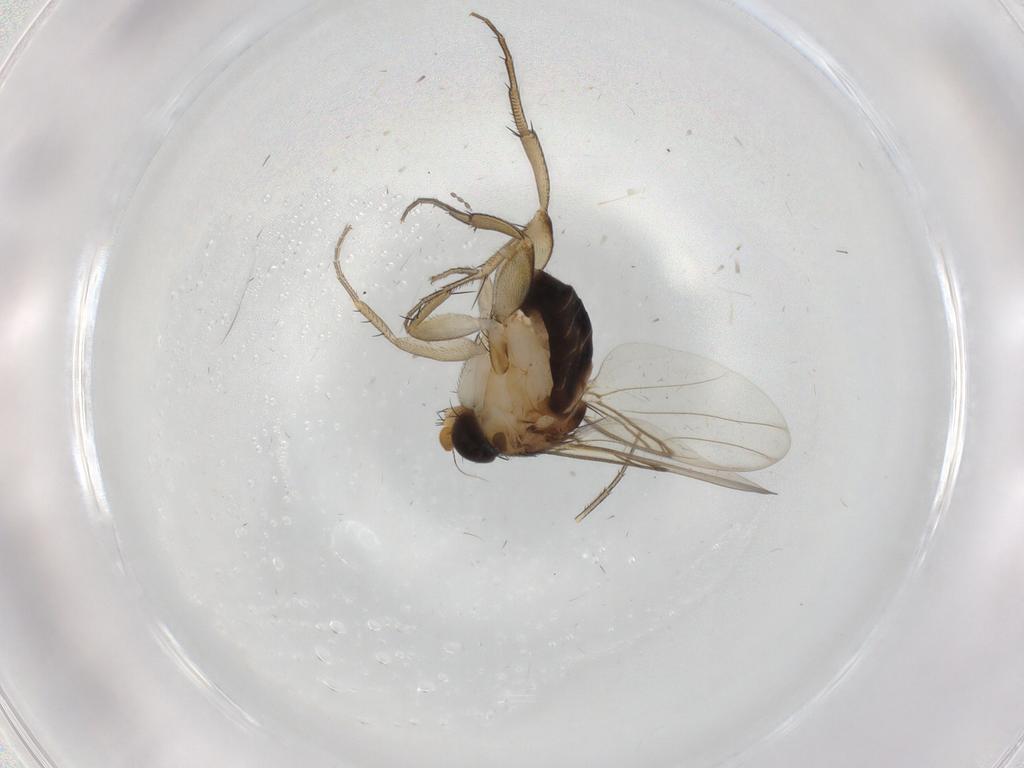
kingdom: Animalia
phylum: Arthropoda
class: Insecta
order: Diptera
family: Phoridae
